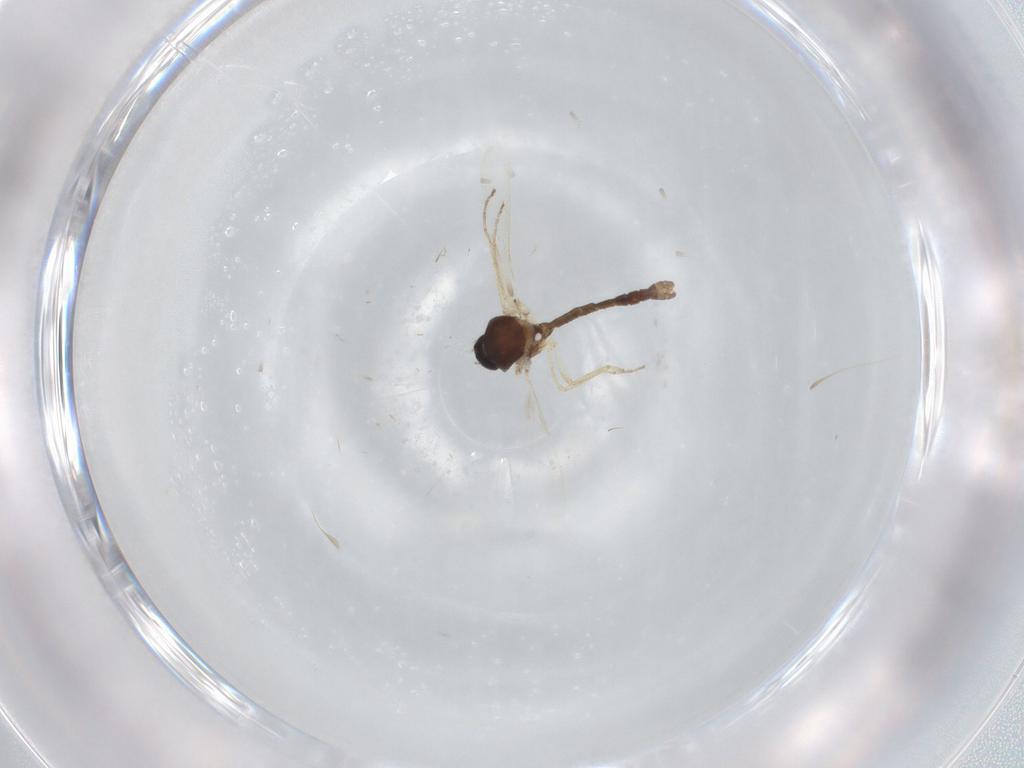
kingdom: Animalia
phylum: Arthropoda
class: Insecta
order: Diptera
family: Ceratopogonidae
